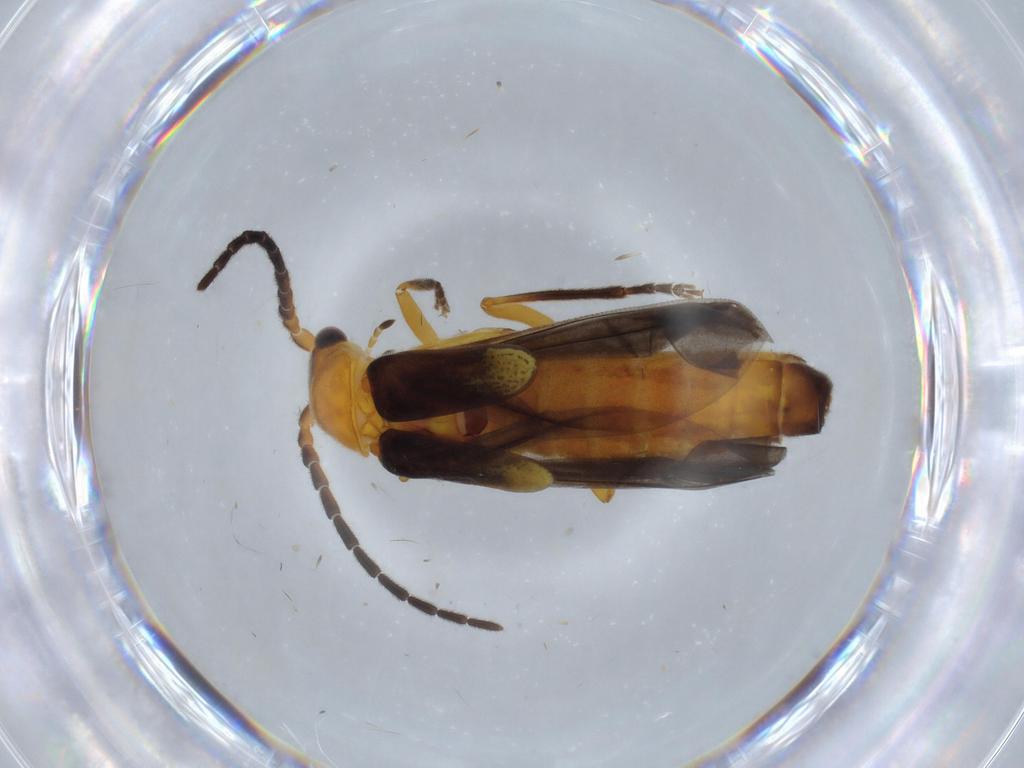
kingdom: Animalia
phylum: Arthropoda
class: Insecta
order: Coleoptera
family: Cantharidae
